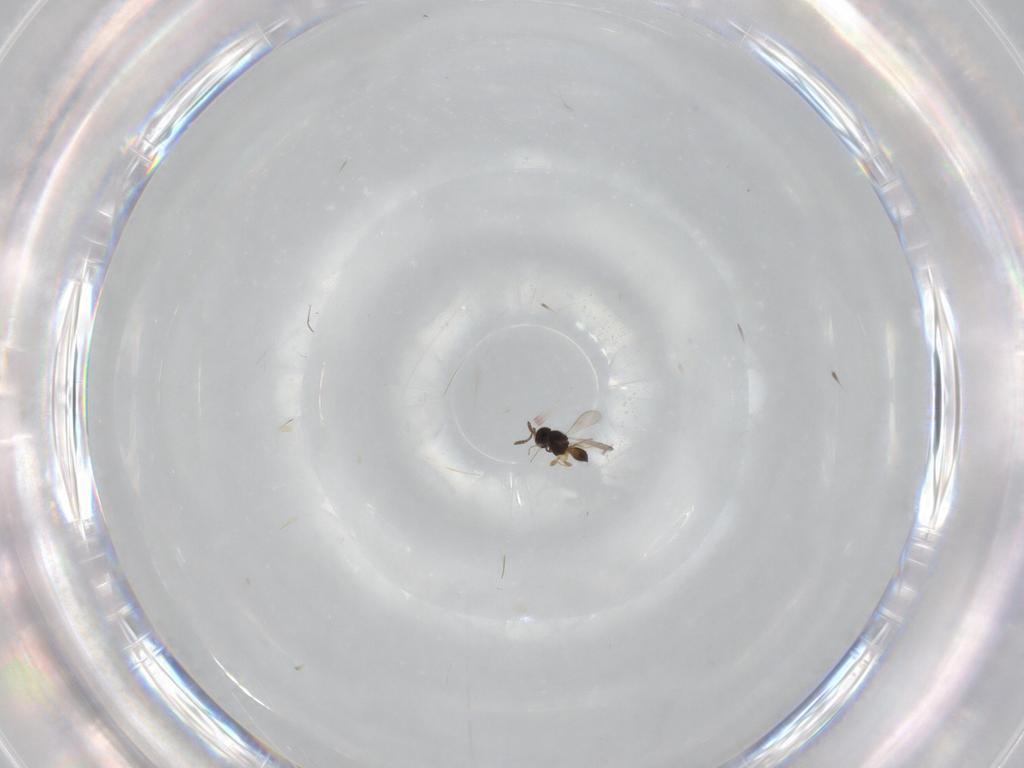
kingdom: Animalia
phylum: Arthropoda
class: Insecta
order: Hymenoptera
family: Scelionidae
